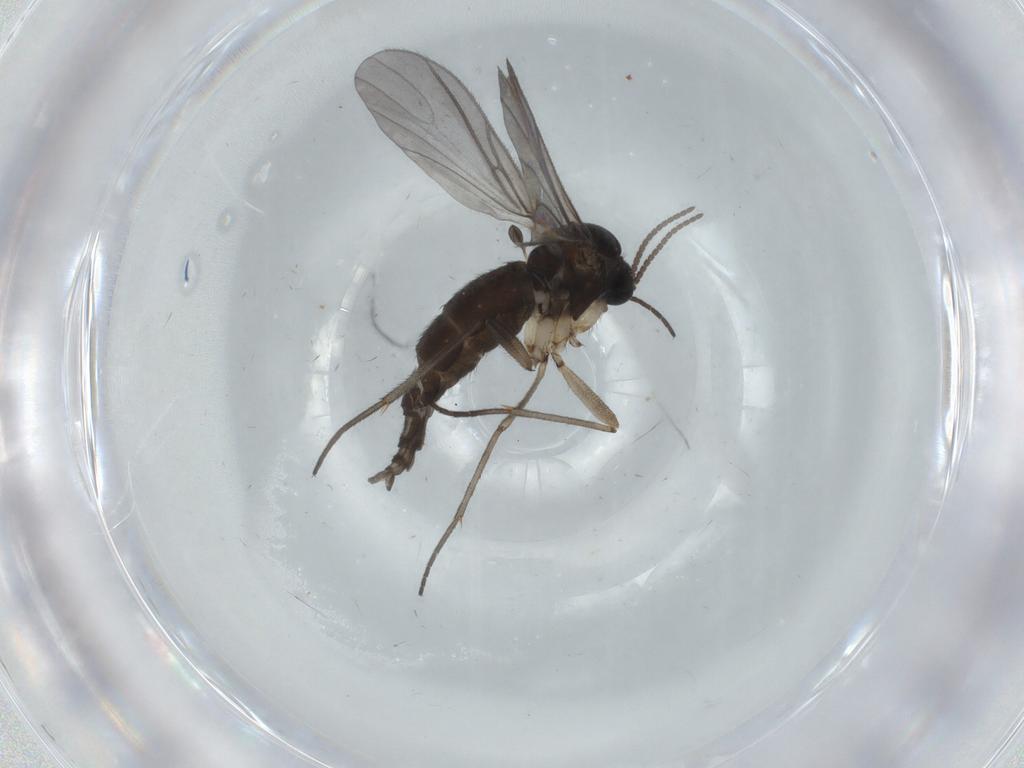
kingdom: Animalia
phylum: Arthropoda
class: Insecta
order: Diptera
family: Sciaridae
